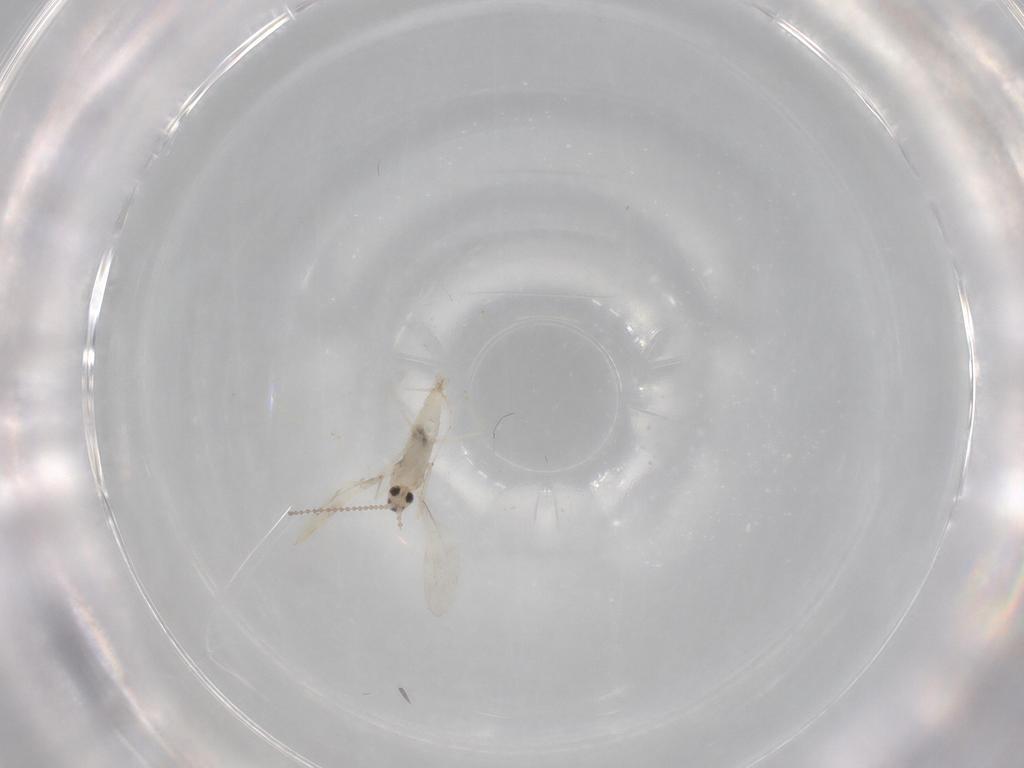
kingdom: Animalia
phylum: Arthropoda
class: Insecta
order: Diptera
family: Cecidomyiidae
